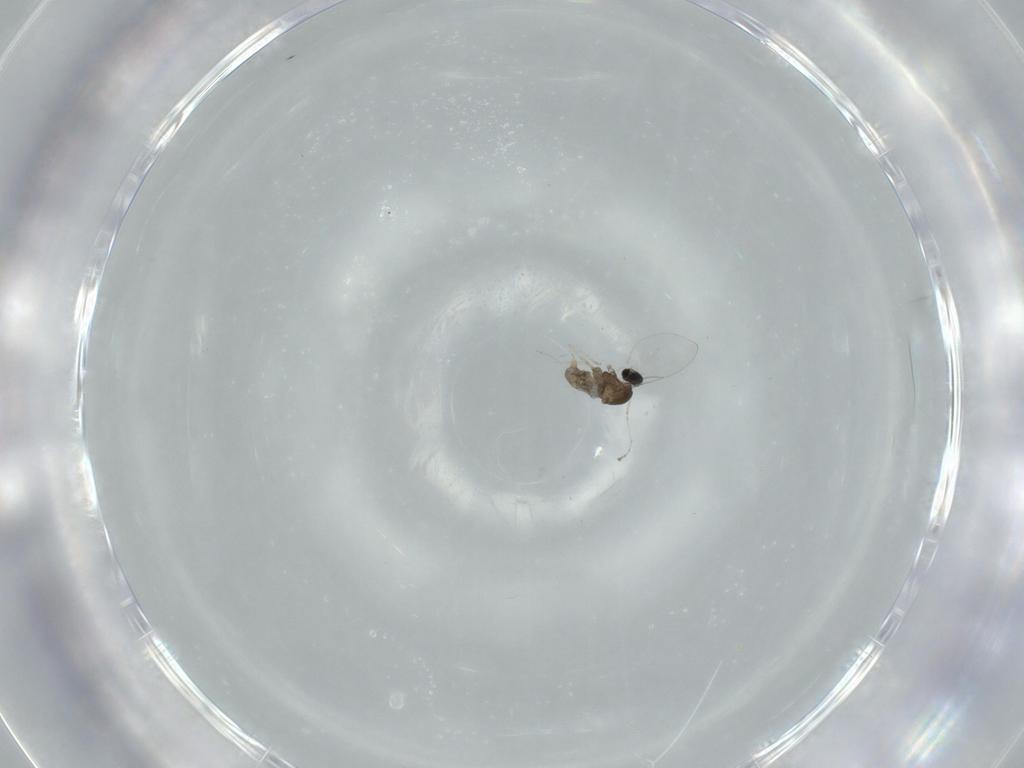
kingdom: Animalia
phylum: Arthropoda
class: Insecta
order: Diptera
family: Cecidomyiidae
